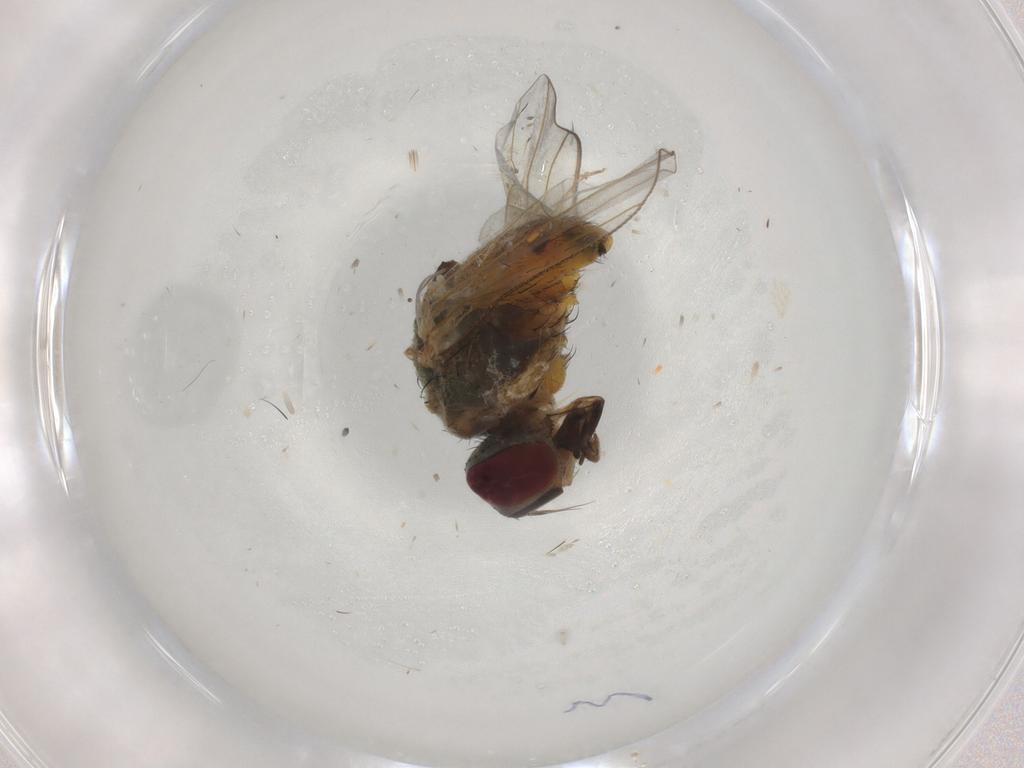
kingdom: Animalia
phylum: Arthropoda
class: Insecta
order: Diptera
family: Muscidae
